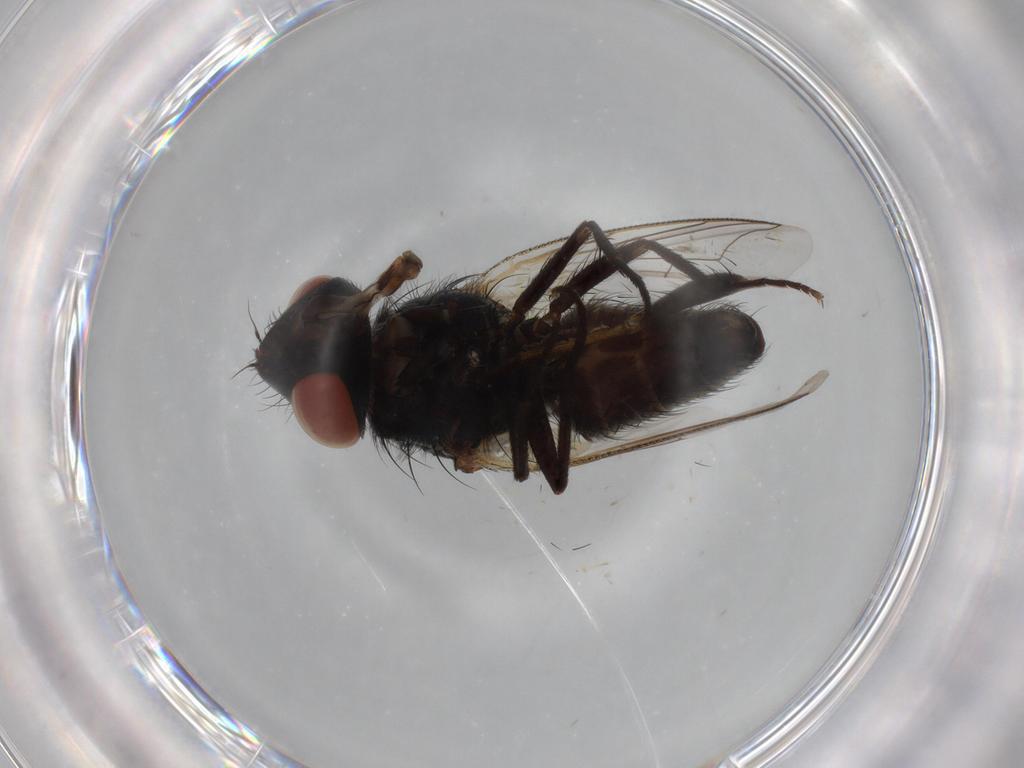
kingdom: Animalia
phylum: Arthropoda
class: Insecta
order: Diptera
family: Sarcophagidae
